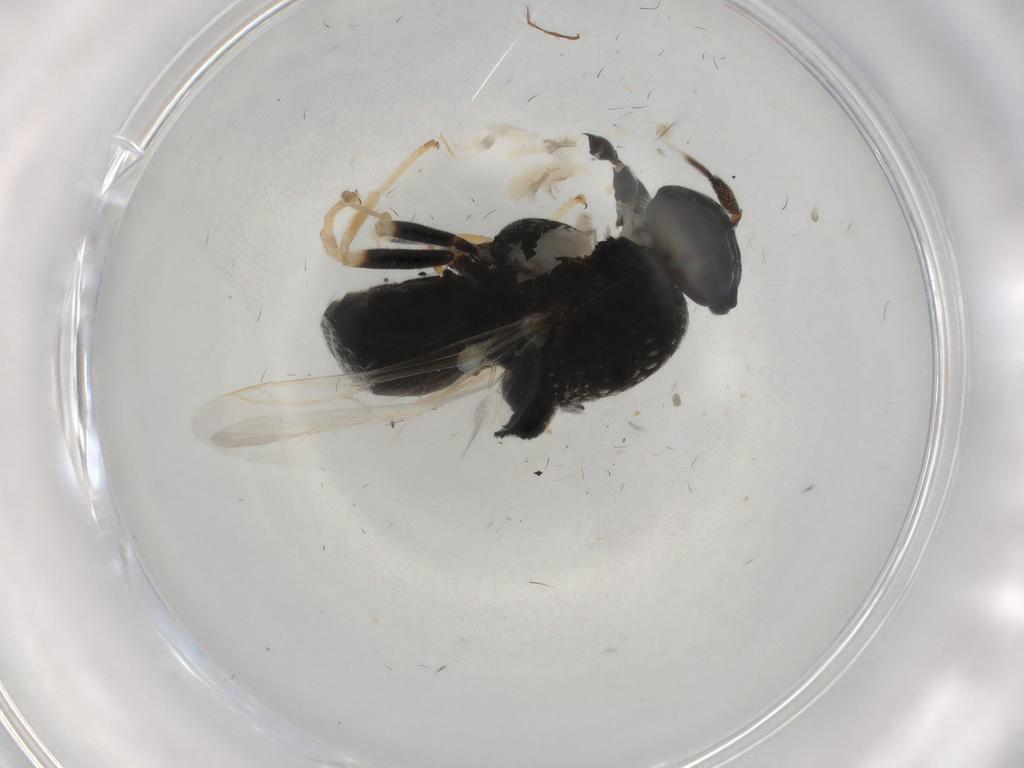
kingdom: Animalia
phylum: Arthropoda
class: Insecta
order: Diptera
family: Stratiomyidae
